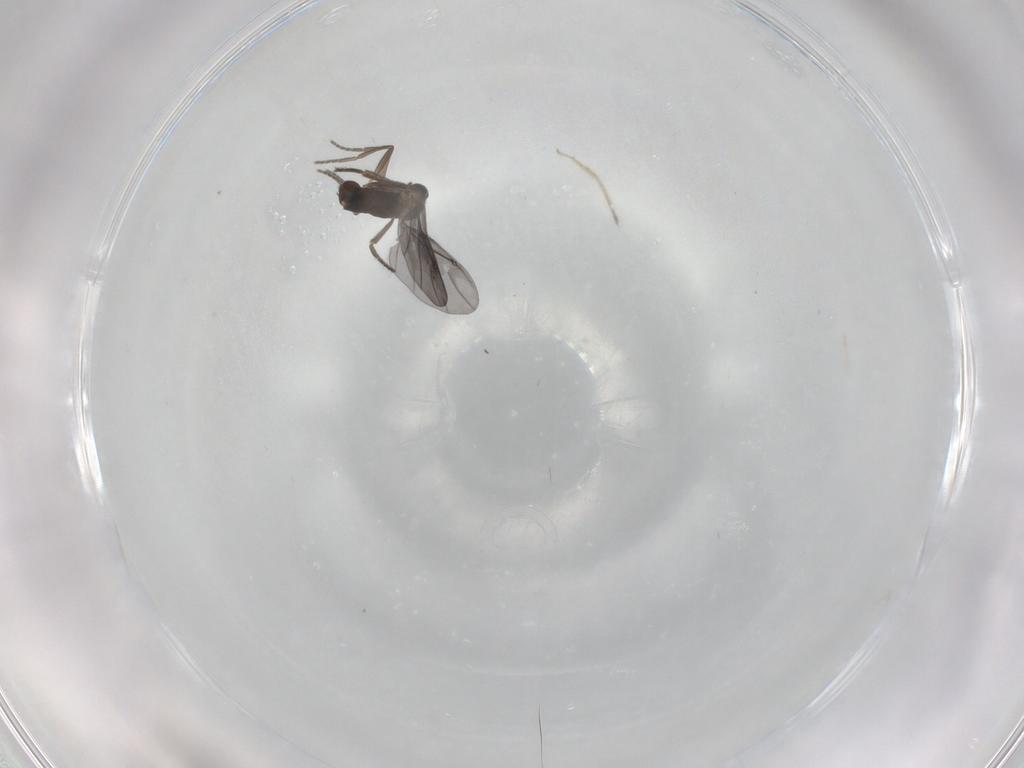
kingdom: Animalia
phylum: Arthropoda
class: Insecta
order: Diptera
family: Phoridae
